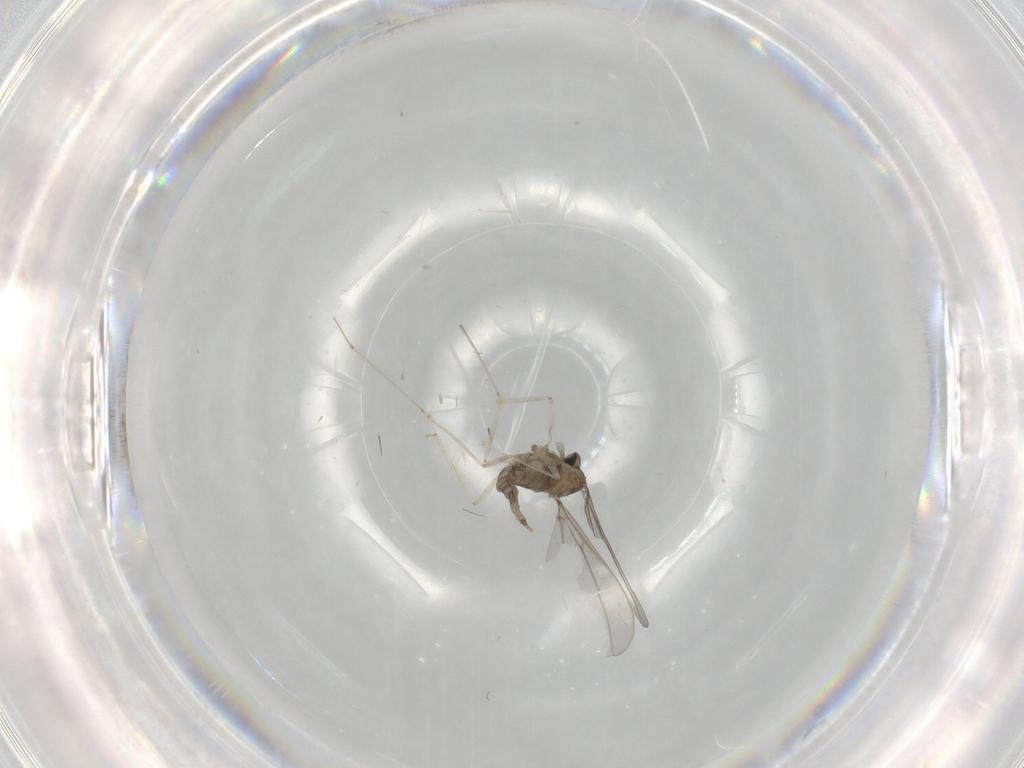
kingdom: Animalia
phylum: Arthropoda
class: Insecta
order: Diptera
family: Cecidomyiidae
